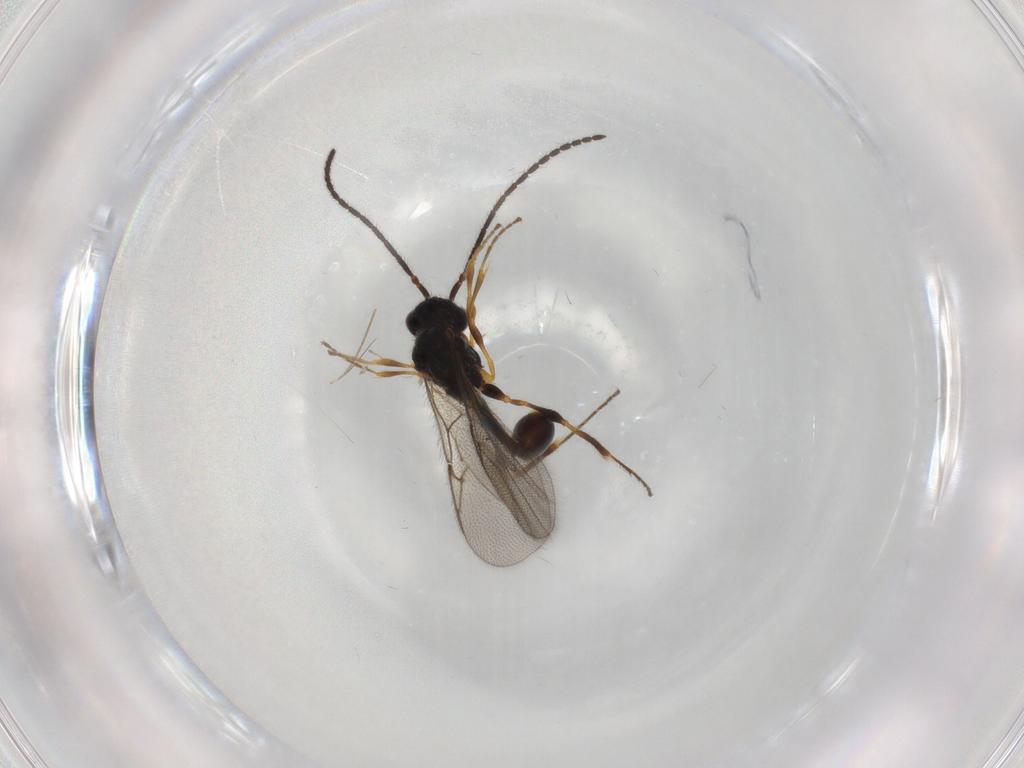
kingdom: Animalia
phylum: Arthropoda
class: Insecta
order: Hymenoptera
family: Diapriidae
